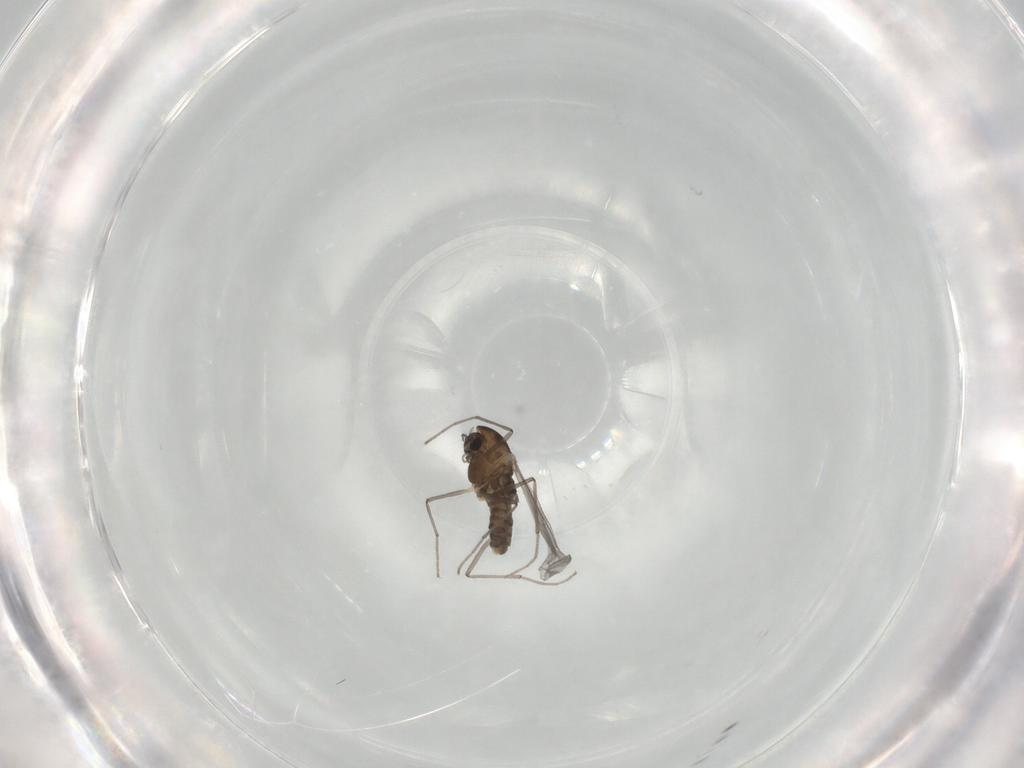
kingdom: Animalia
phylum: Arthropoda
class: Insecta
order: Diptera
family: Chironomidae
